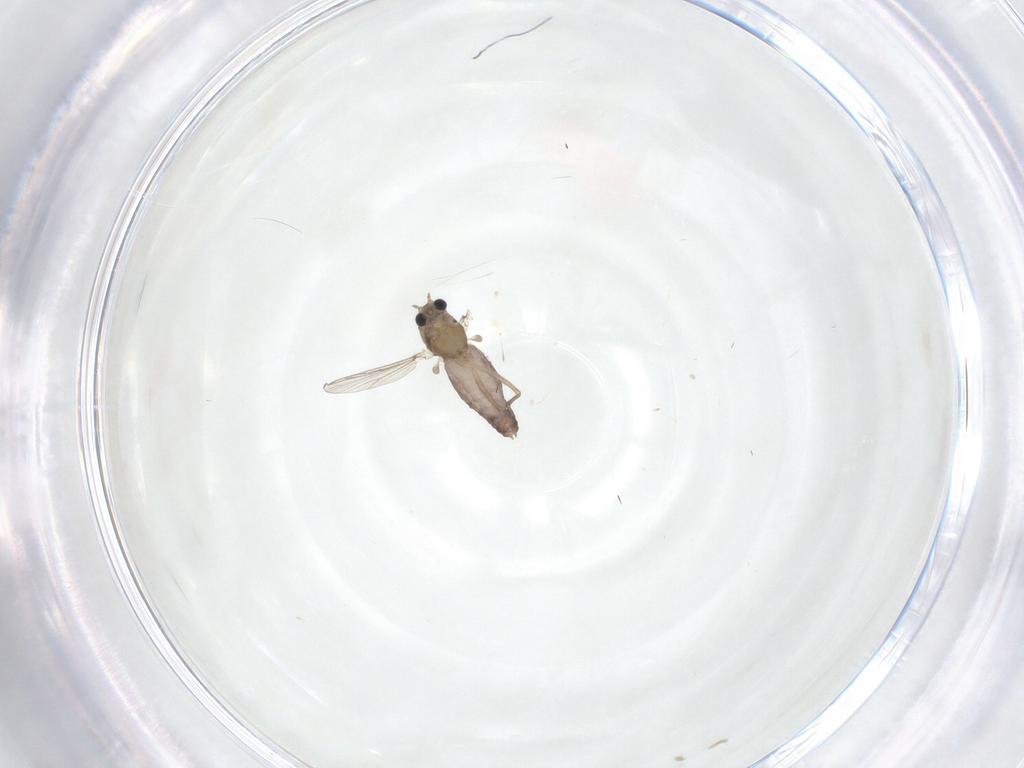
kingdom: Animalia
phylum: Arthropoda
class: Insecta
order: Diptera
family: Chironomidae
